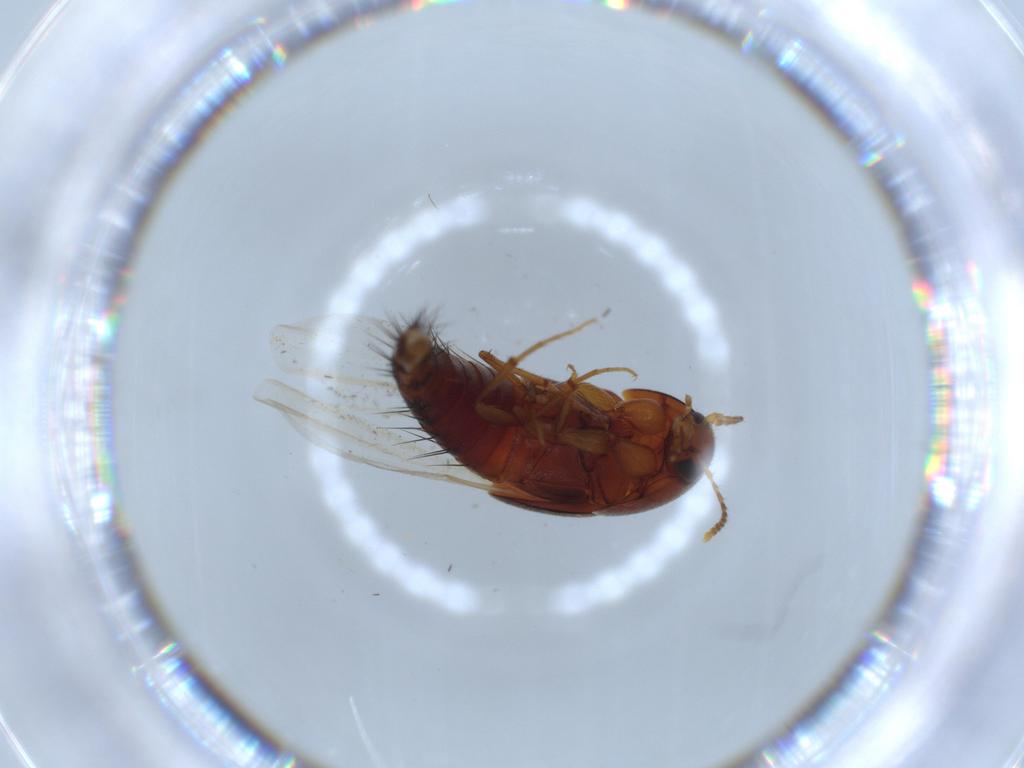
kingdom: Animalia
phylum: Arthropoda
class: Insecta
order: Coleoptera
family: Staphylinidae
